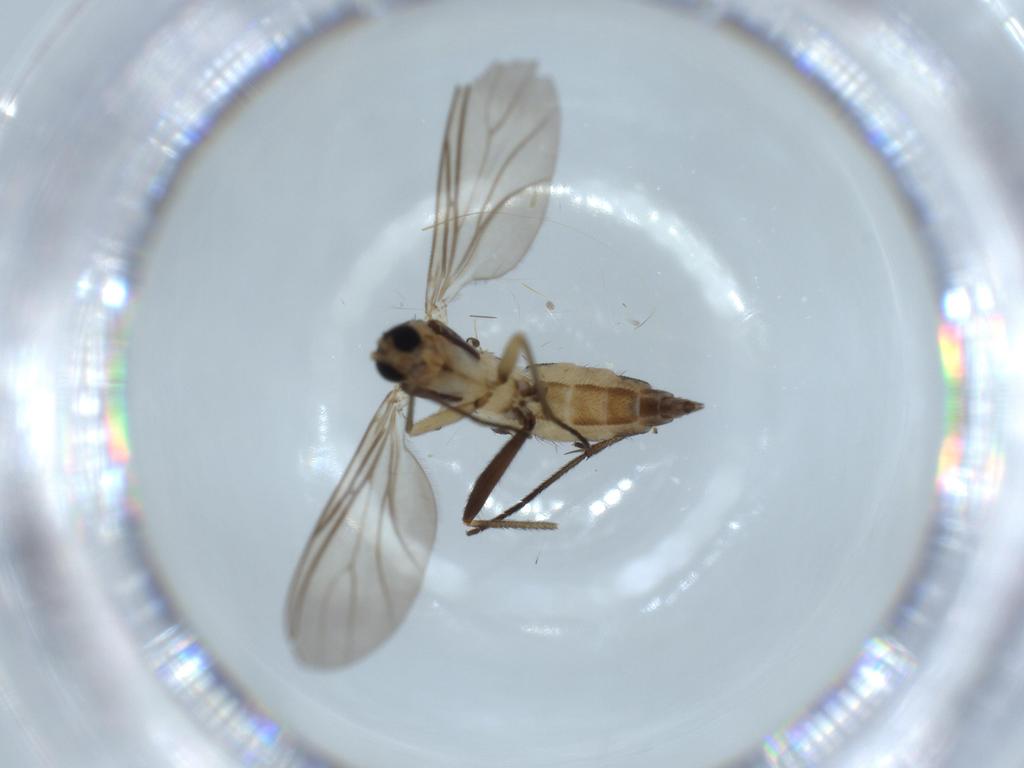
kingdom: Animalia
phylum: Arthropoda
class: Insecta
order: Diptera
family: Sciaridae
